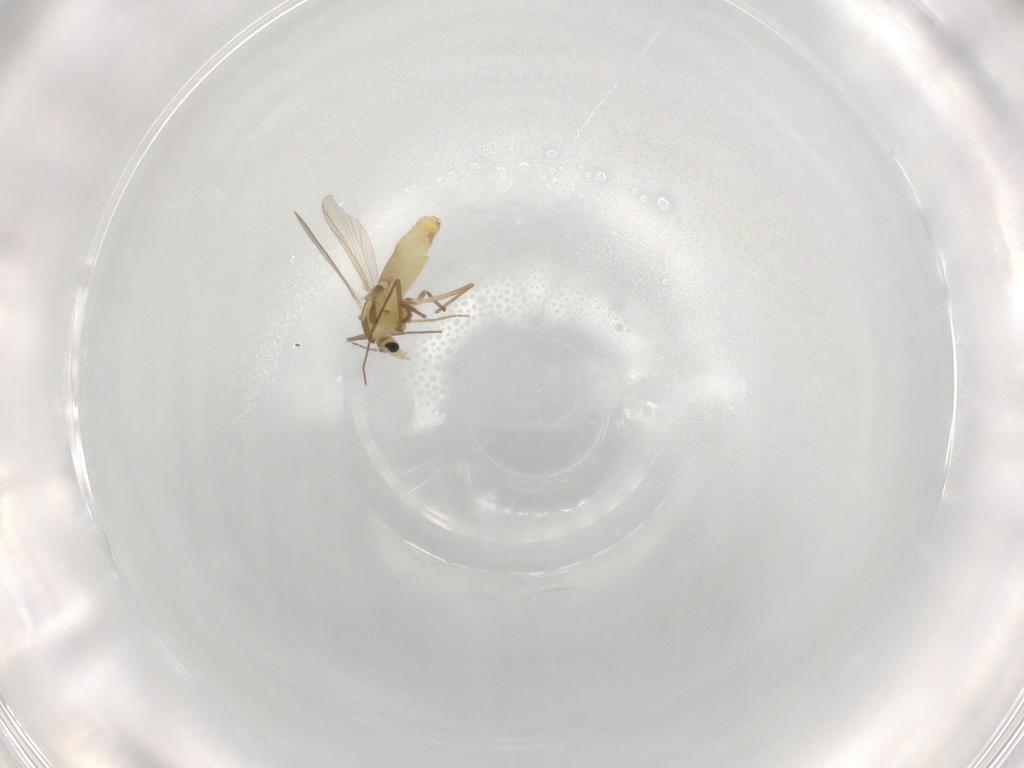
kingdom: Animalia
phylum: Arthropoda
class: Insecta
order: Diptera
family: Chironomidae
